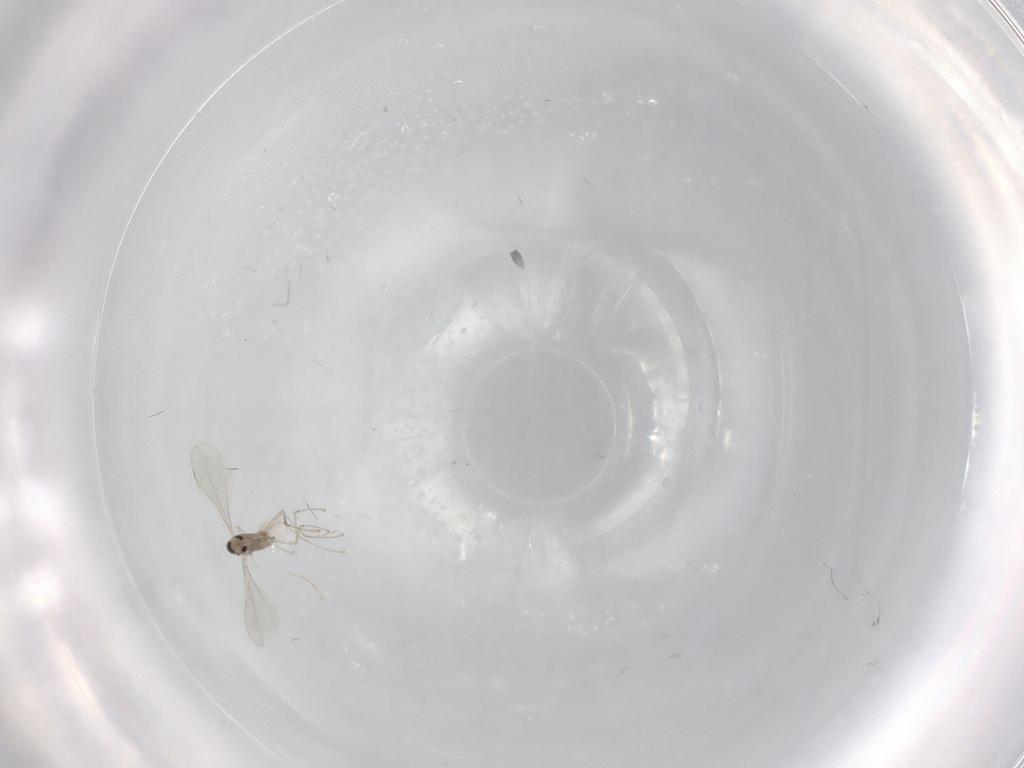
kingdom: Animalia
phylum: Arthropoda
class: Insecta
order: Diptera
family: Cecidomyiidae
